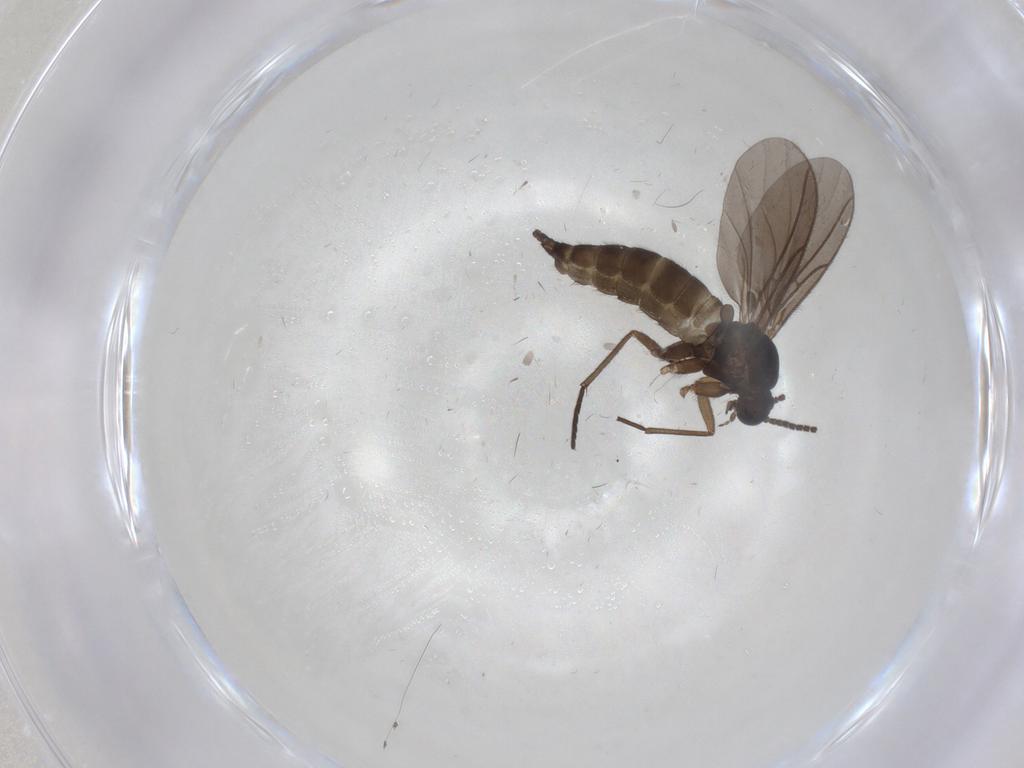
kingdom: Animalia
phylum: Arthropoda
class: Insecta
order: Diptera
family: Sciaridae
